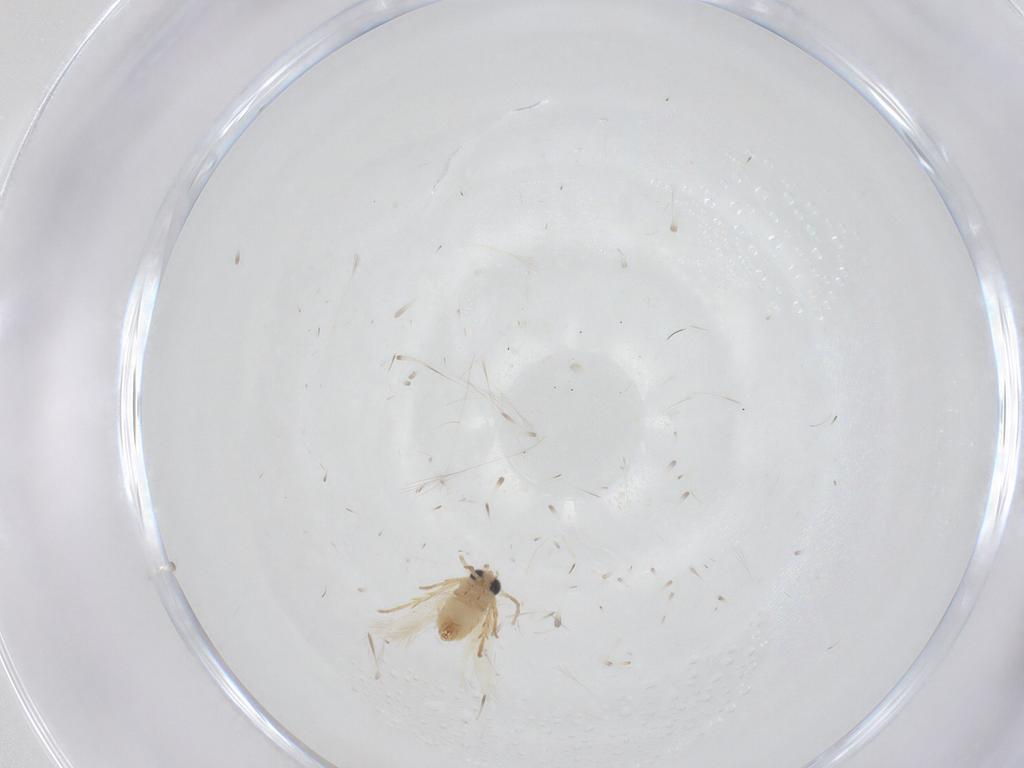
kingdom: Animalia
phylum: Arthropoda
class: Insecta
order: Lepidoptera
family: Crambidae
